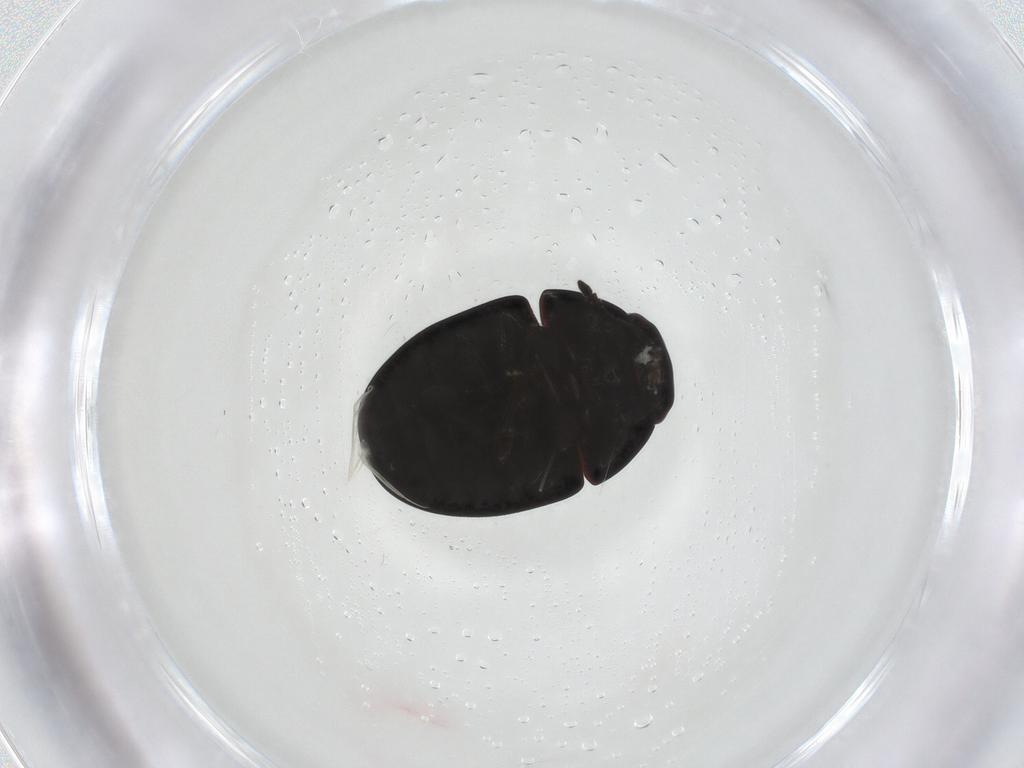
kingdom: Animalia
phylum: Arthropoda
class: Insecta
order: Coleoptera
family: Anthribidae
